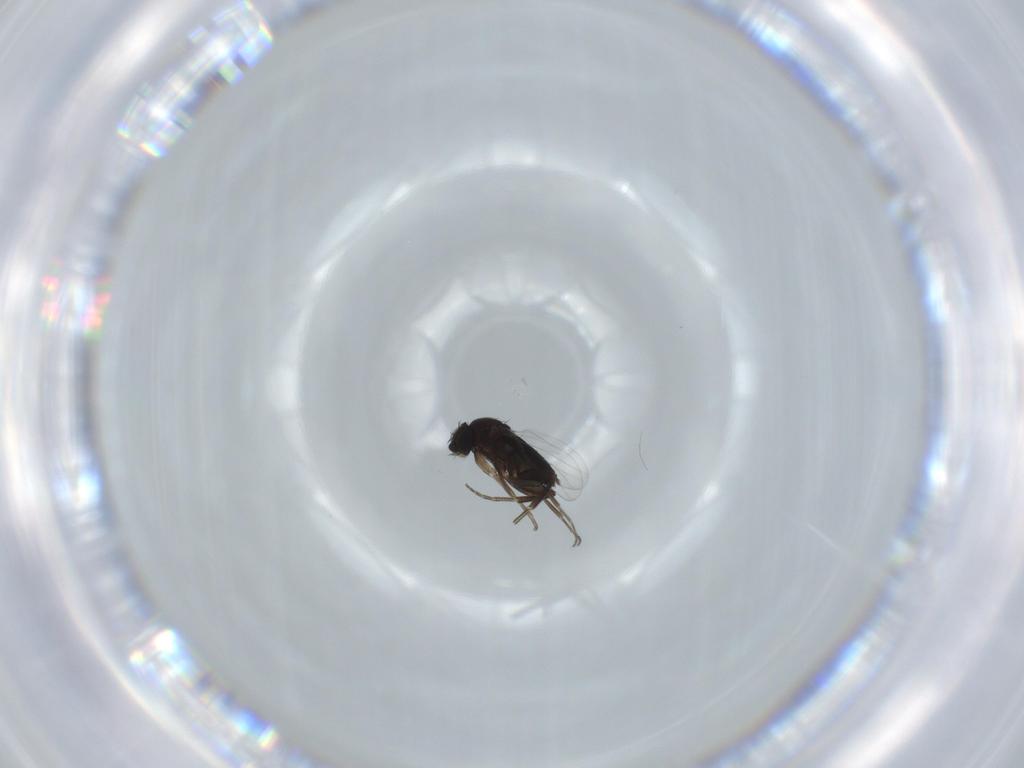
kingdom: Animalia
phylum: Arthropoda
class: Insecta
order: Diptera
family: Phoridae
